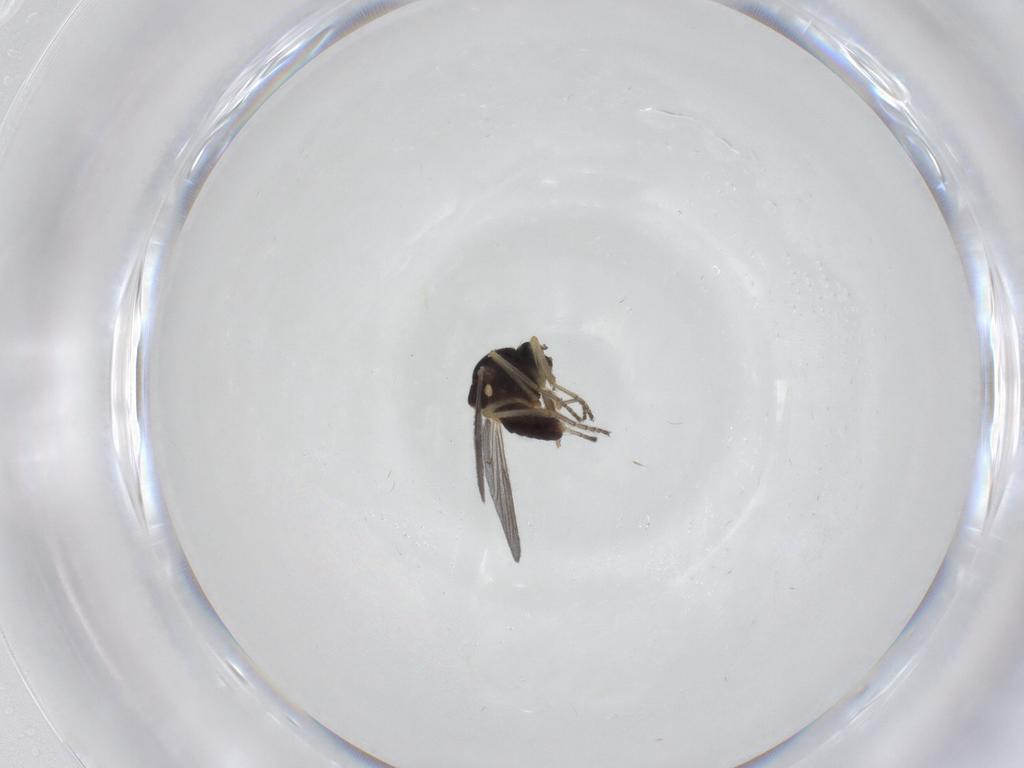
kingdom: Animalia
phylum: Arthropoda
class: Insecta
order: Diptera
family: Ceratopogonidae
